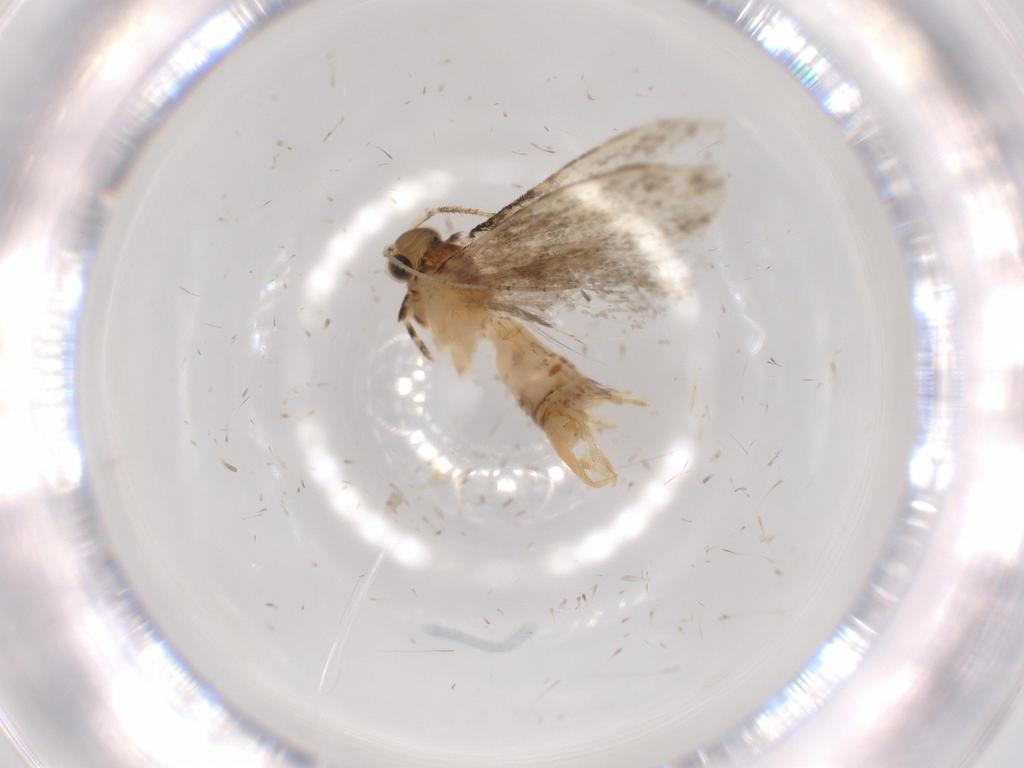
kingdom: Animalia
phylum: Arthropoda
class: Insecta
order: Lepidoptera
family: Tineidae
